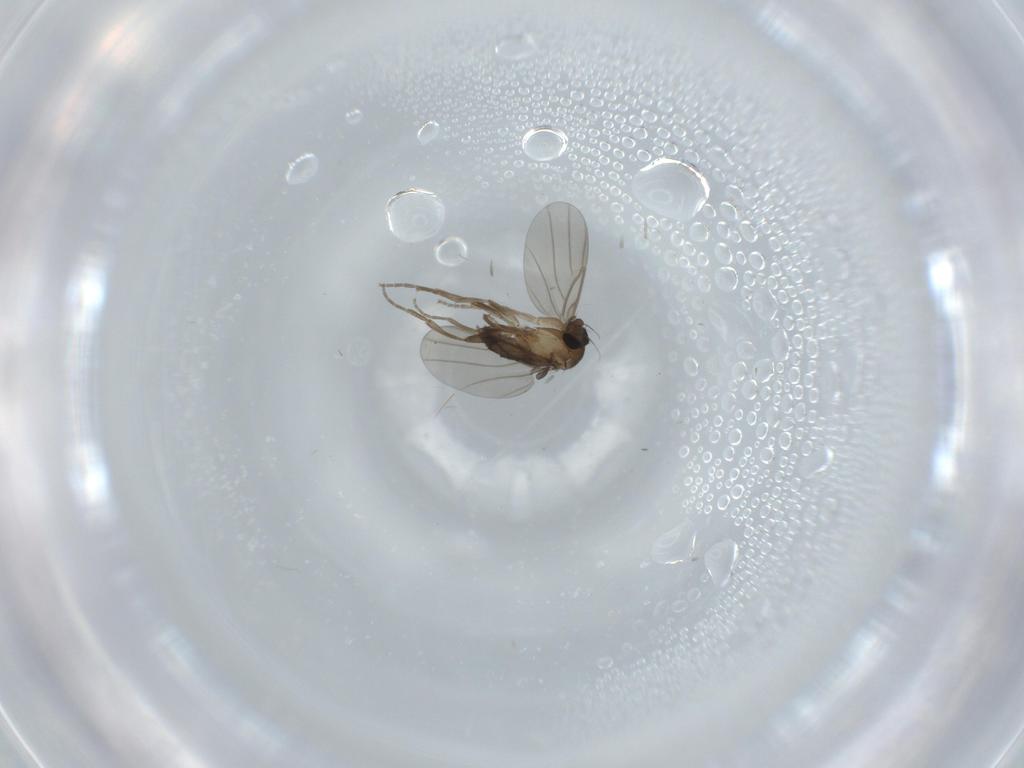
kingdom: Animalia
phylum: Arthropoda
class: Insecta
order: Diptera
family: Phoridae
